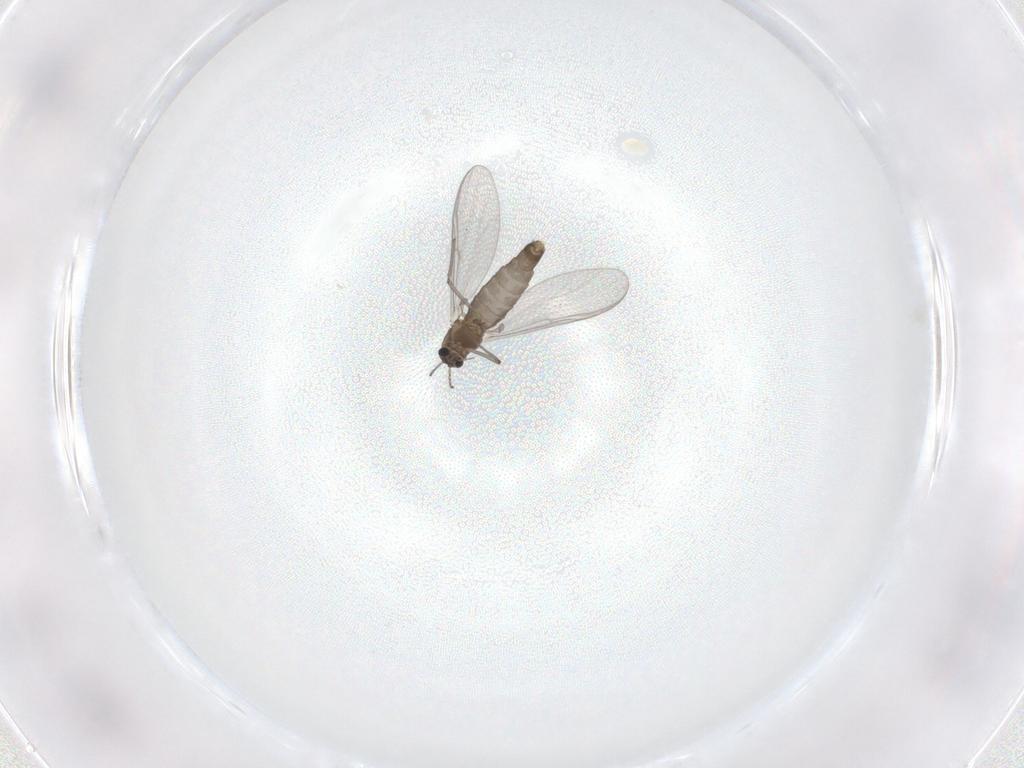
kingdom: Animalia
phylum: Arthropoda
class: Insecta
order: Diptera
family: Chironomidae
